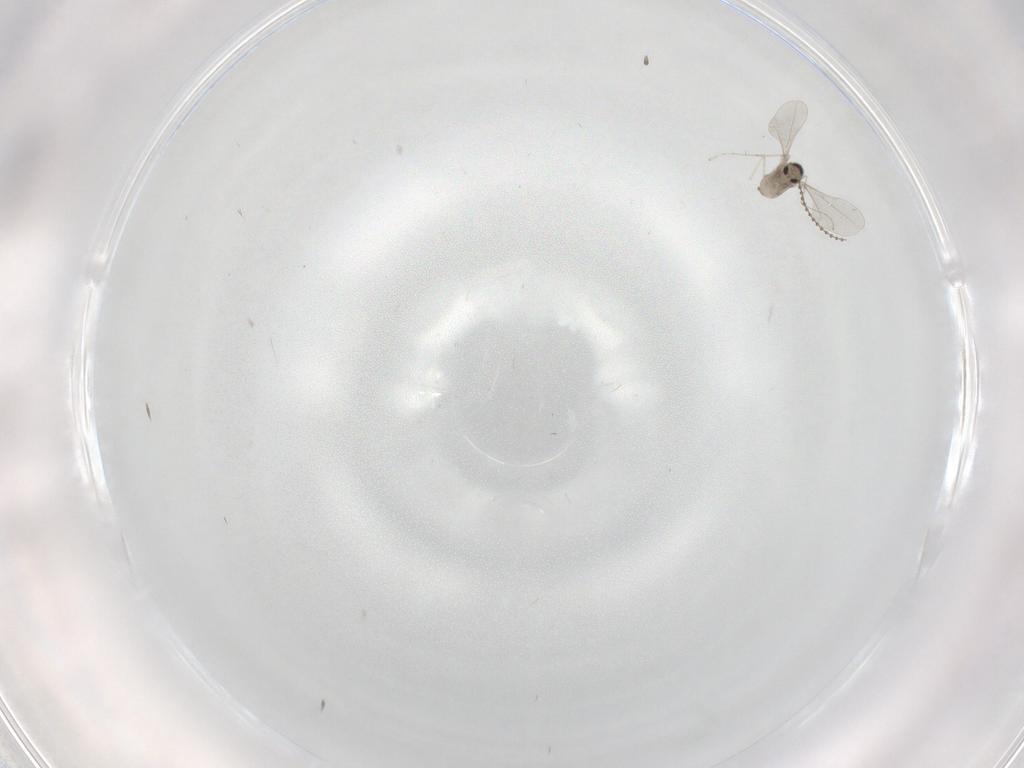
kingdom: Animalia
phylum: Arthropoda
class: Insecta
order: Diptera
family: Cecidomyiidae
